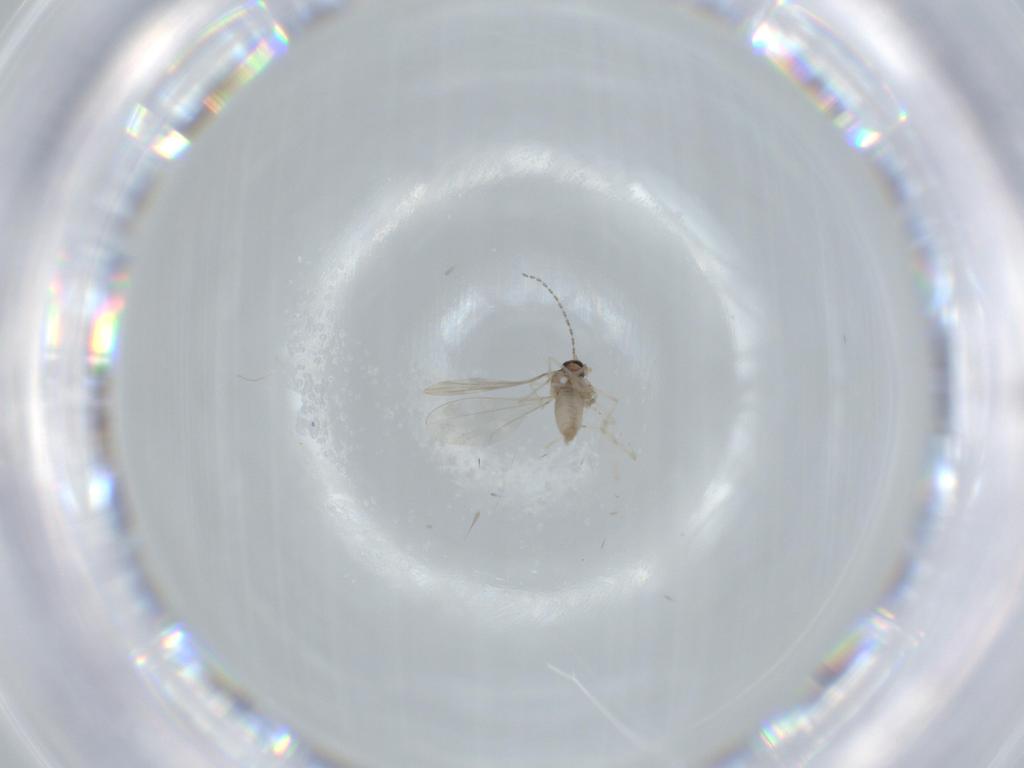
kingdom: Animalia
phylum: Arthropoda
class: Insecta
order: Diptera
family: Cecidomyiidae
